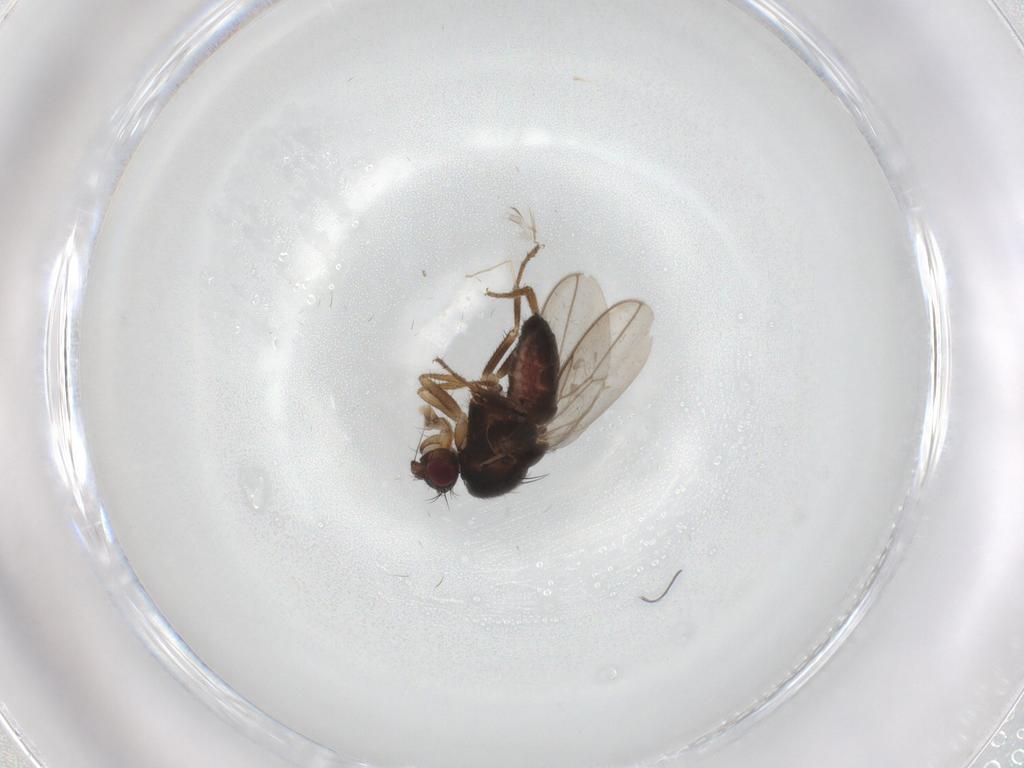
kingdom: Animalia
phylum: Arthropoda
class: Insecta
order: Diptera
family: Sphaeroceridae
